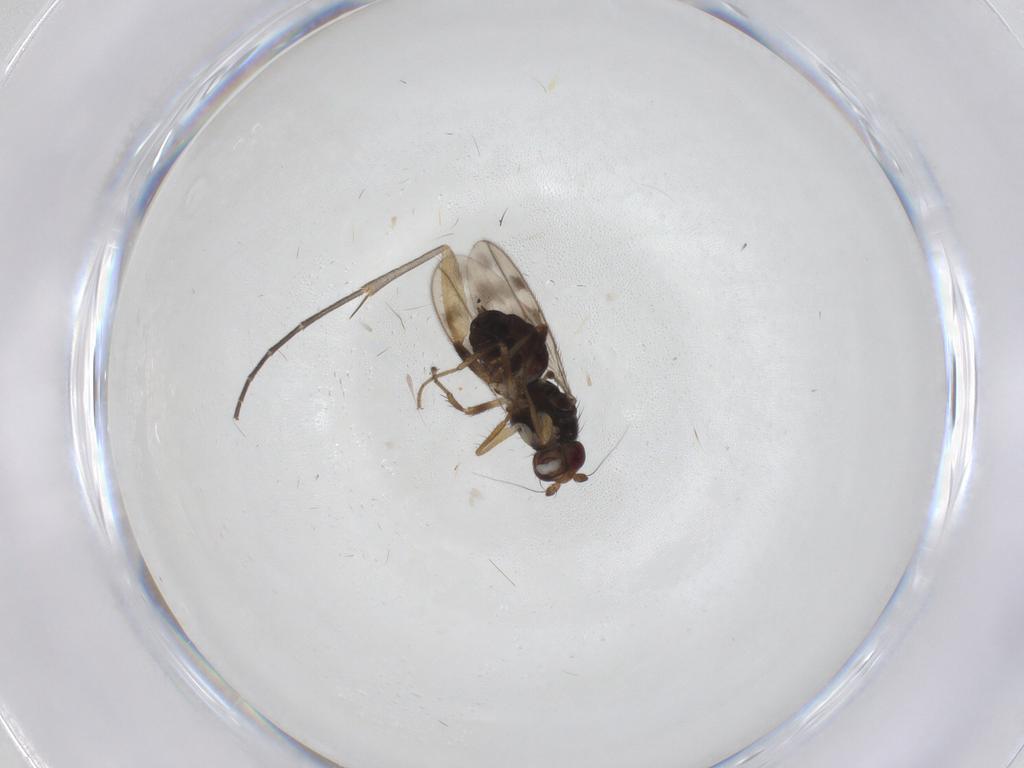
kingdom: Animalia
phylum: Arthropoda
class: Insecta
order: Diptera
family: Sphaeroceridae
